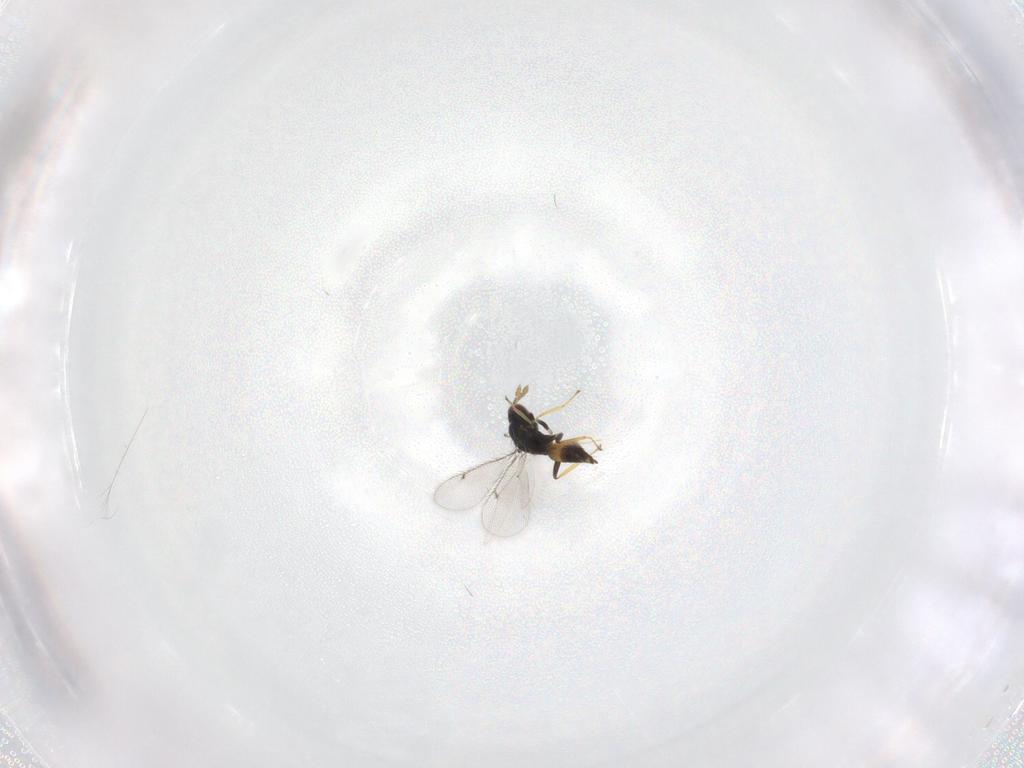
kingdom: Animalia
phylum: Arthropoda
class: Insecta
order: Hymenoptera
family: Eulophidae
